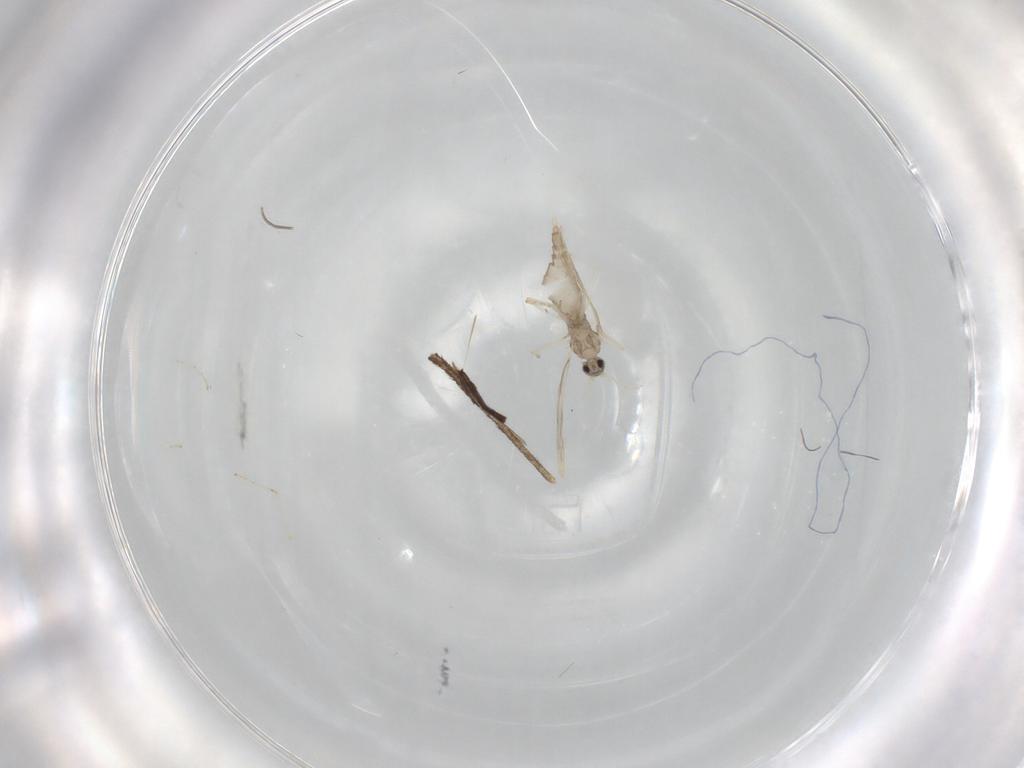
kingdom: Animalia
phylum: Arthropoda
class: Insecta
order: Diptera
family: Cecidomyiidae
